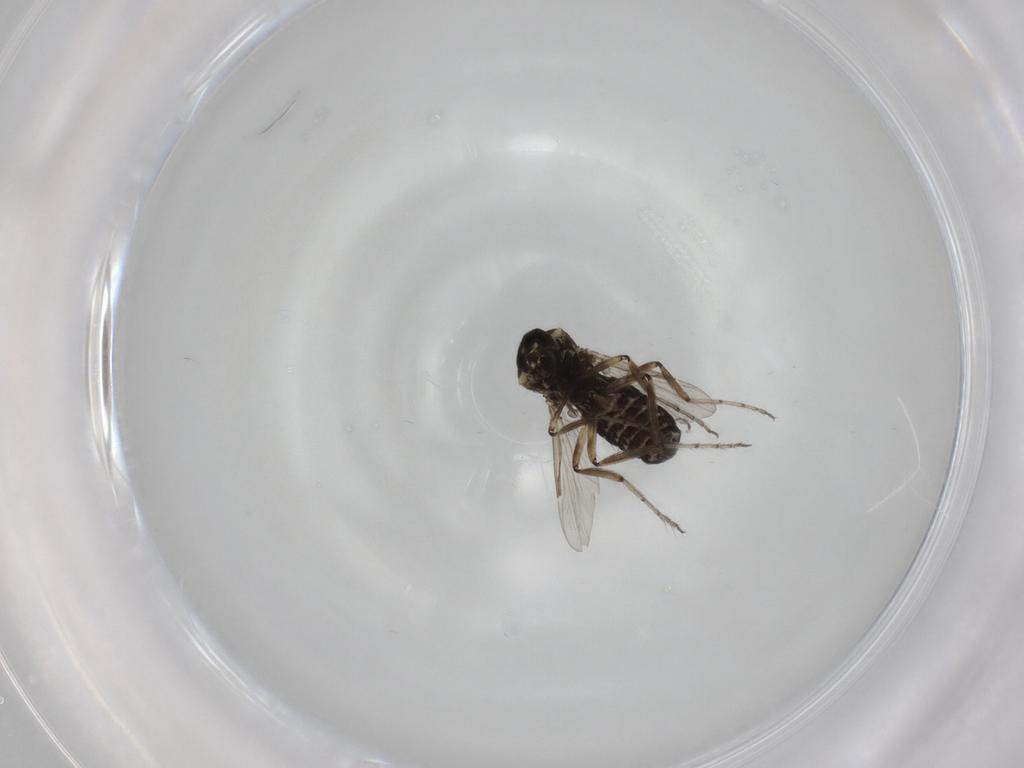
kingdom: Animalia
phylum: Arthropoda
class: Insecta
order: Diptera
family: Ceratopogonidae
